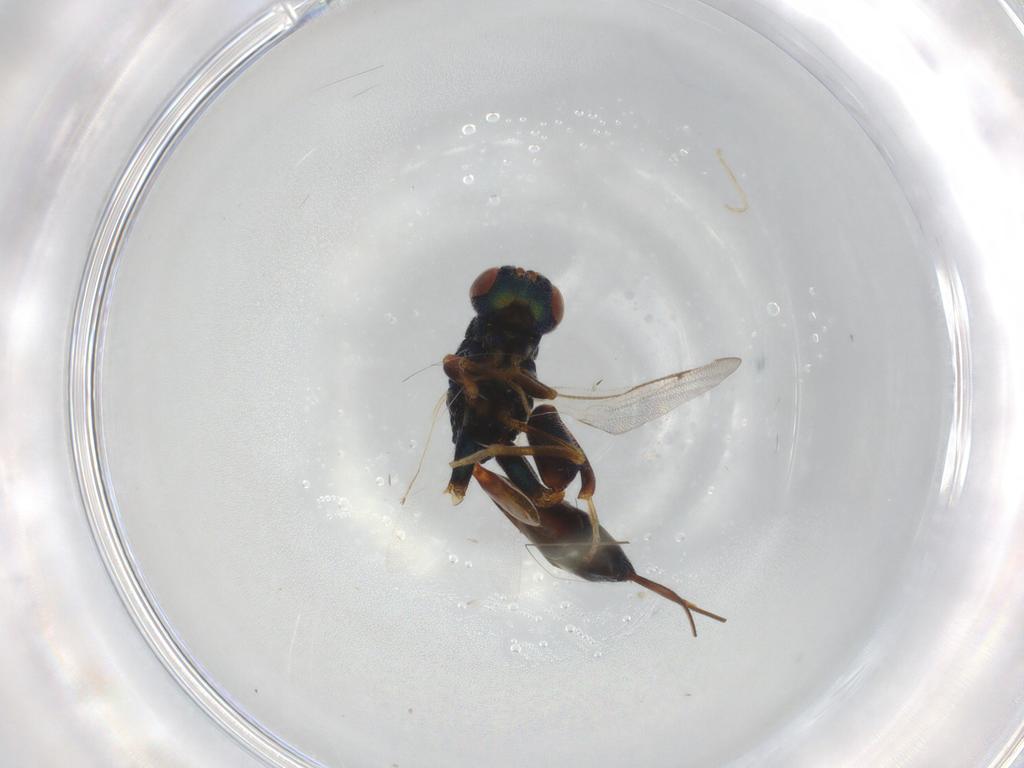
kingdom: Animalia
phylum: Arthropoda
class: Insecta
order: Hymenoptera
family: Torymidae
